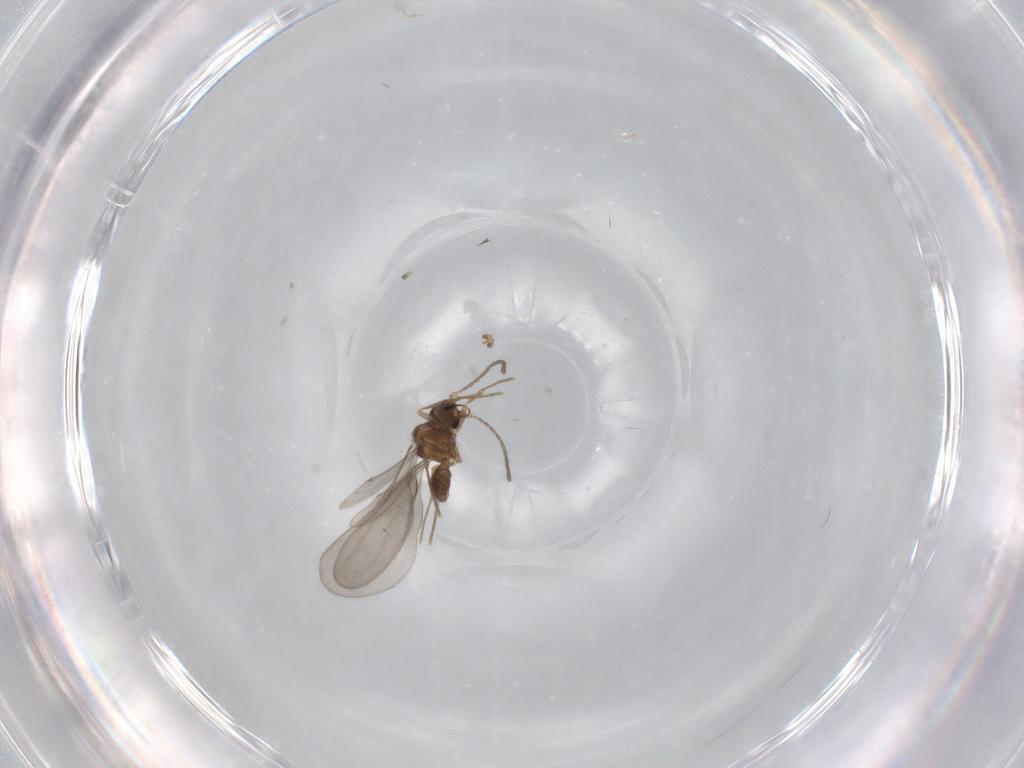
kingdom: Animalia
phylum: Arthropoda
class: Insecta
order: Hymenoptera
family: Formicidae
